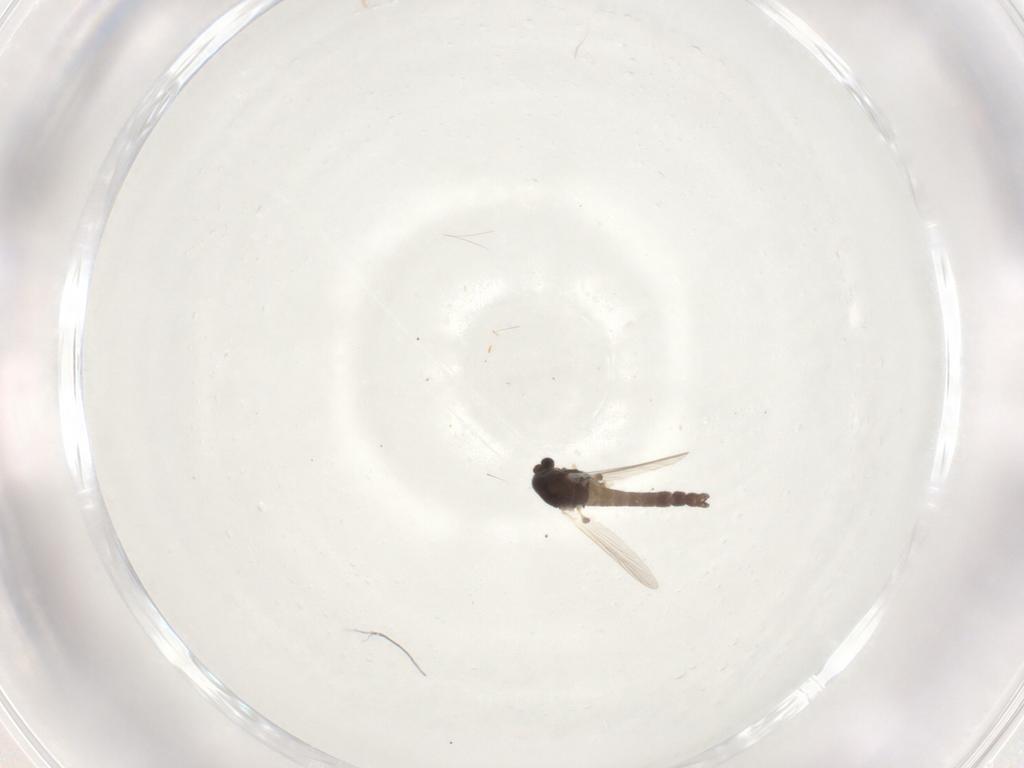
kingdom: Animalia
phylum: Arthropoda
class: Insecta
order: Diptera
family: Chironomidae
